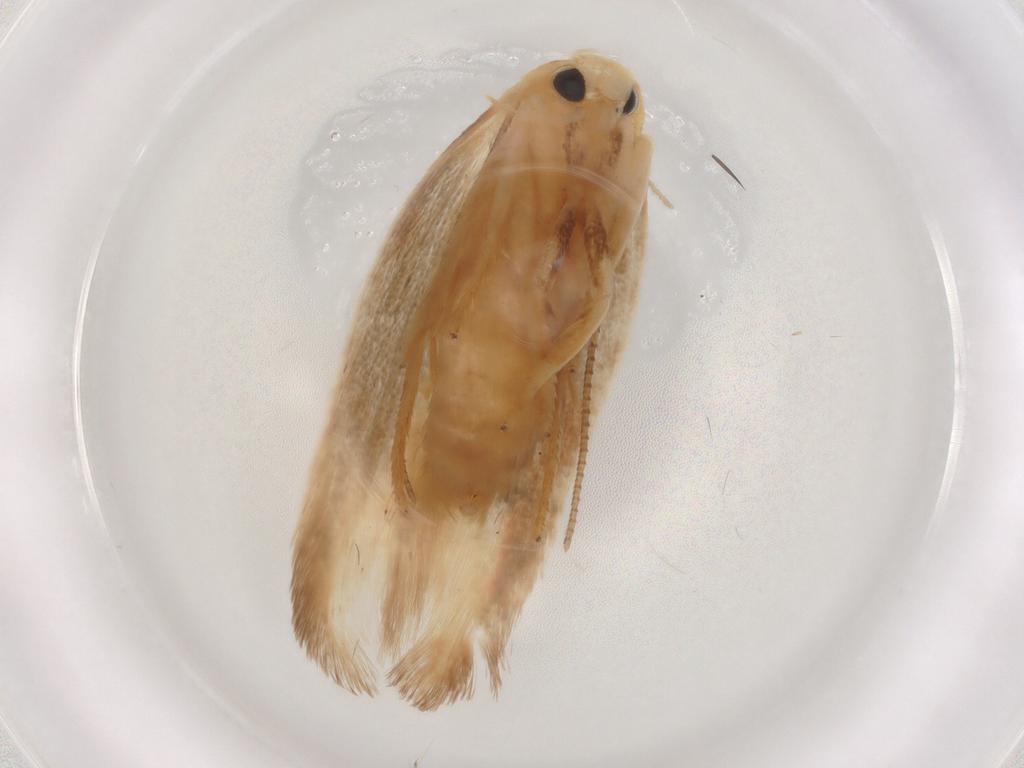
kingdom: Animalia
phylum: Arthropoda
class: Insecta
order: Lepidoptera
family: Geometridae
